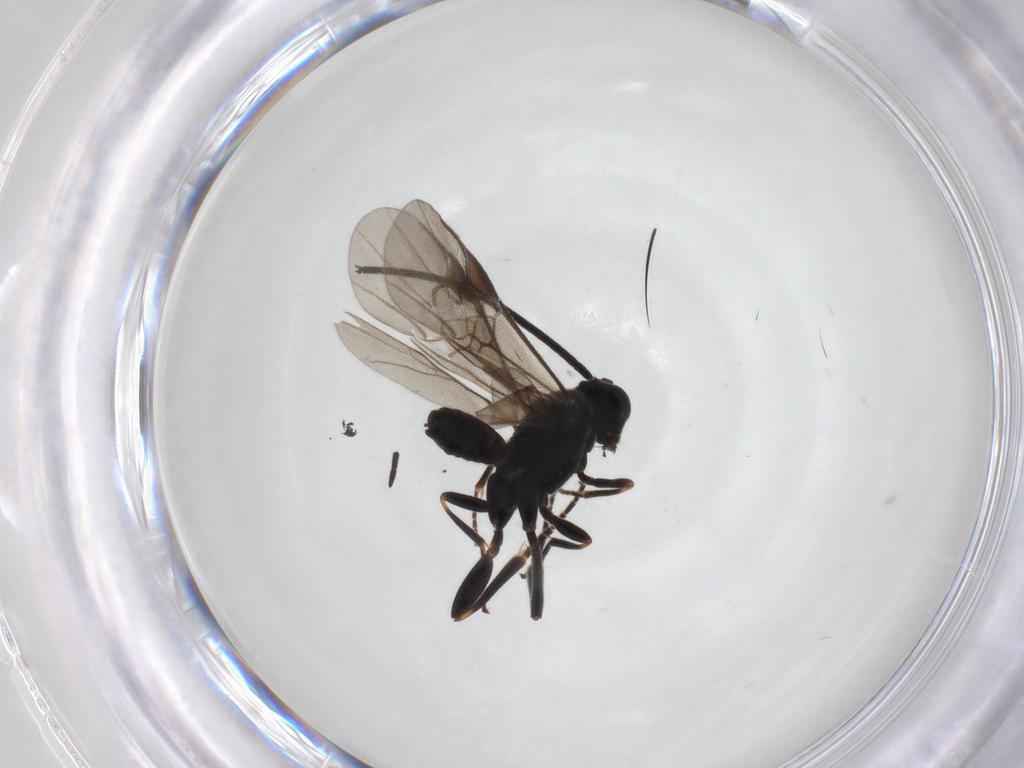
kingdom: Animalia
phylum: Arthropoda
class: Insecta
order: Hymenoptera
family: Braconidae
